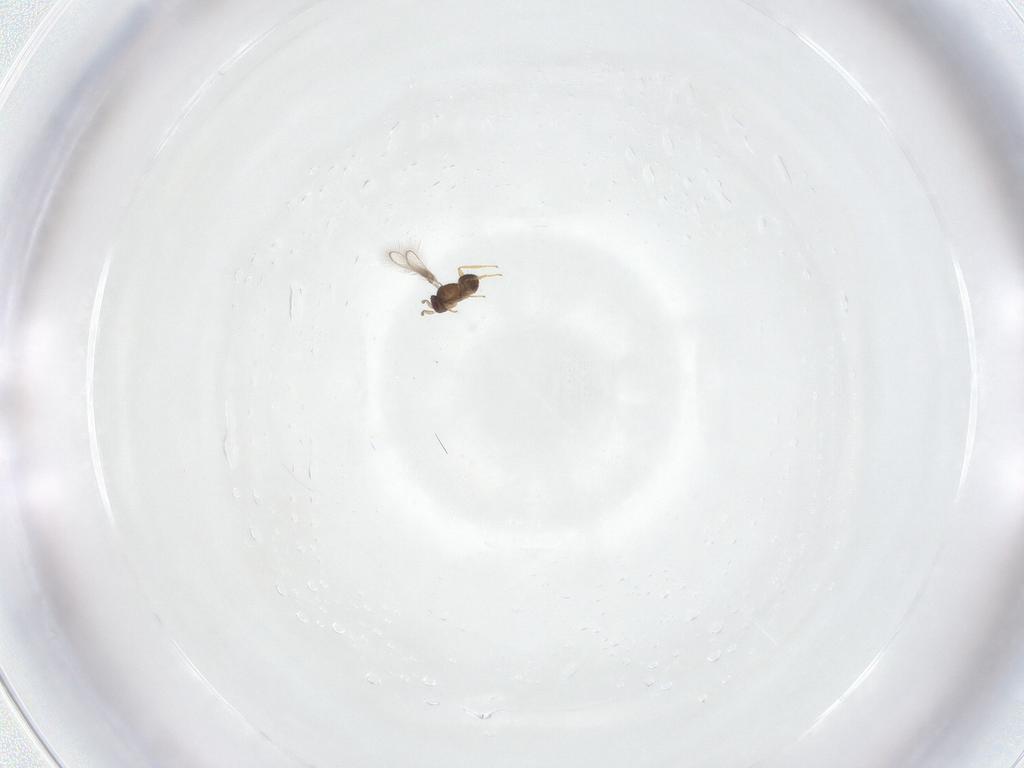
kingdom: Animalia
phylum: Arthropoda
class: Insecta
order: Hymenoptera
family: Mymaridae
